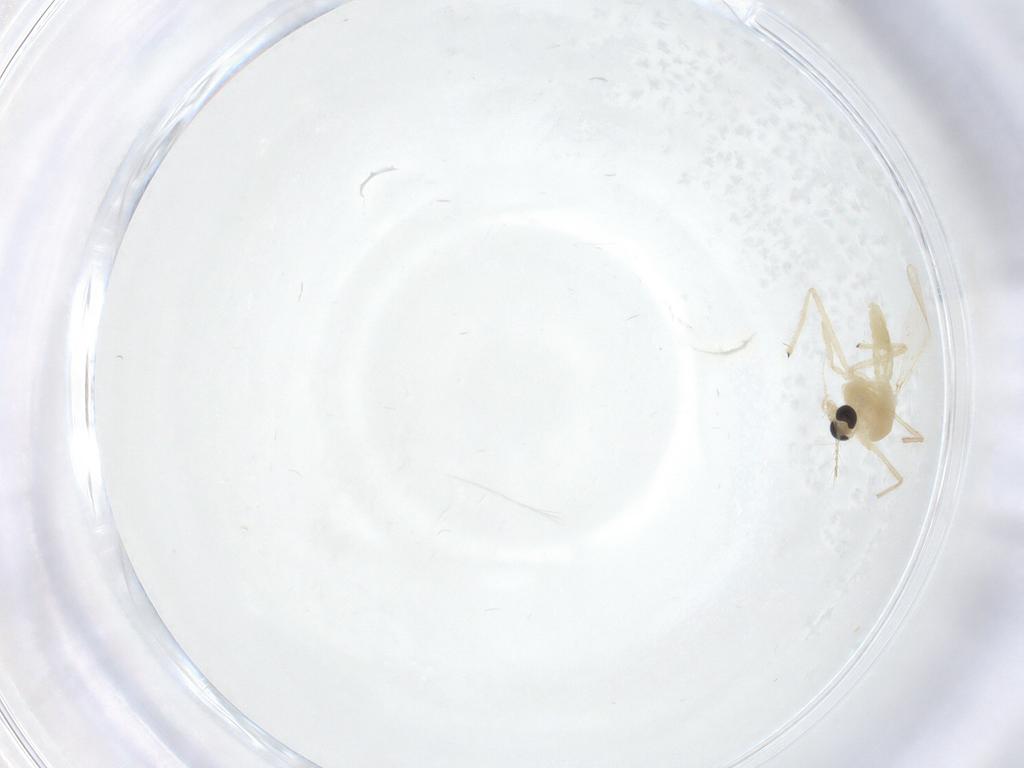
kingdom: Animalia
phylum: Arthropoda
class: Insecta
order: Diptera
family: Chironomidae
